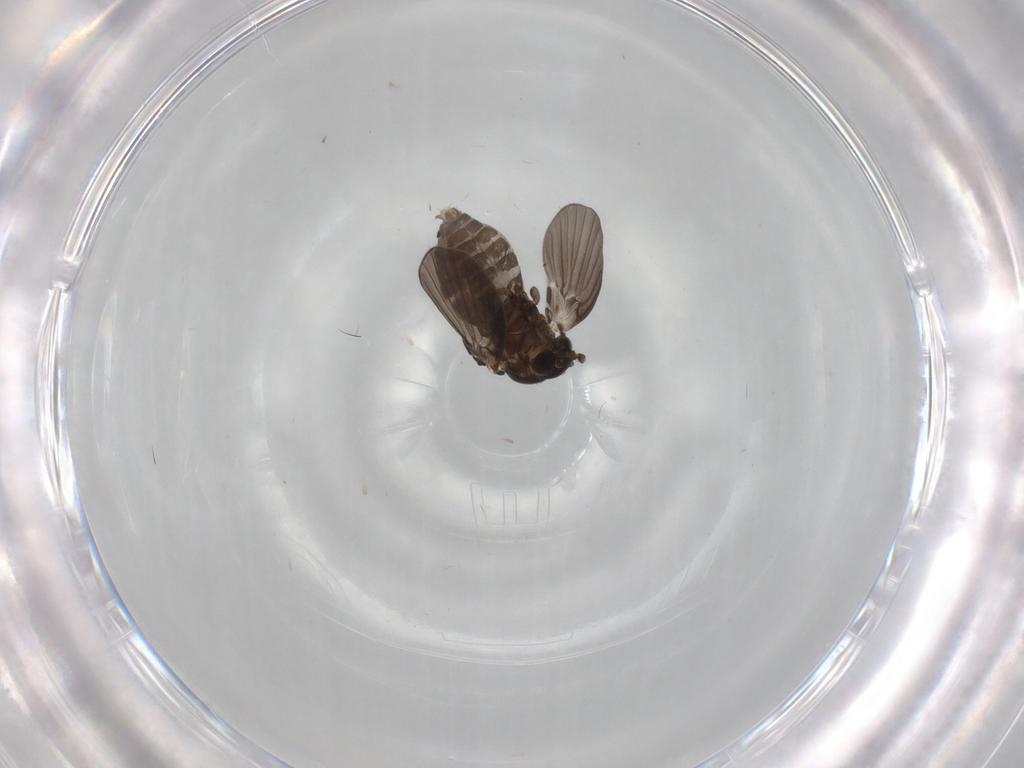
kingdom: Animalia
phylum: Arthropoda
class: Insecta
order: Diptera
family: Psychodidae
